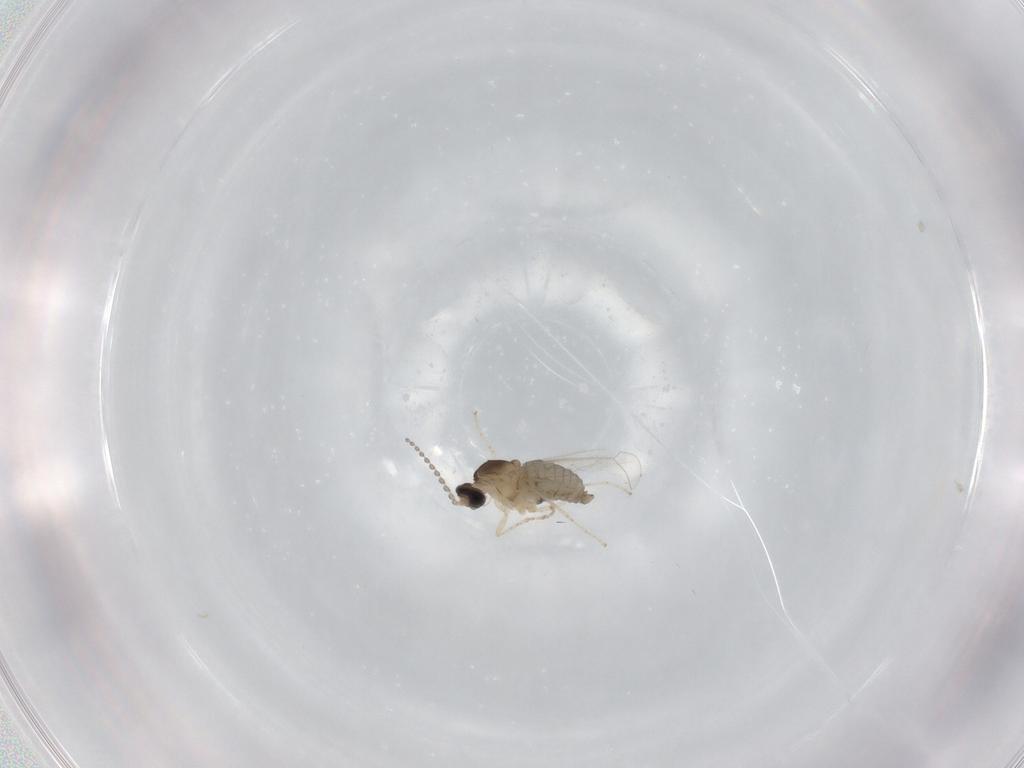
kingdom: Animalia
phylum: Arthropoda
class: Insecta
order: Diptera
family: Cecidomyiidae
